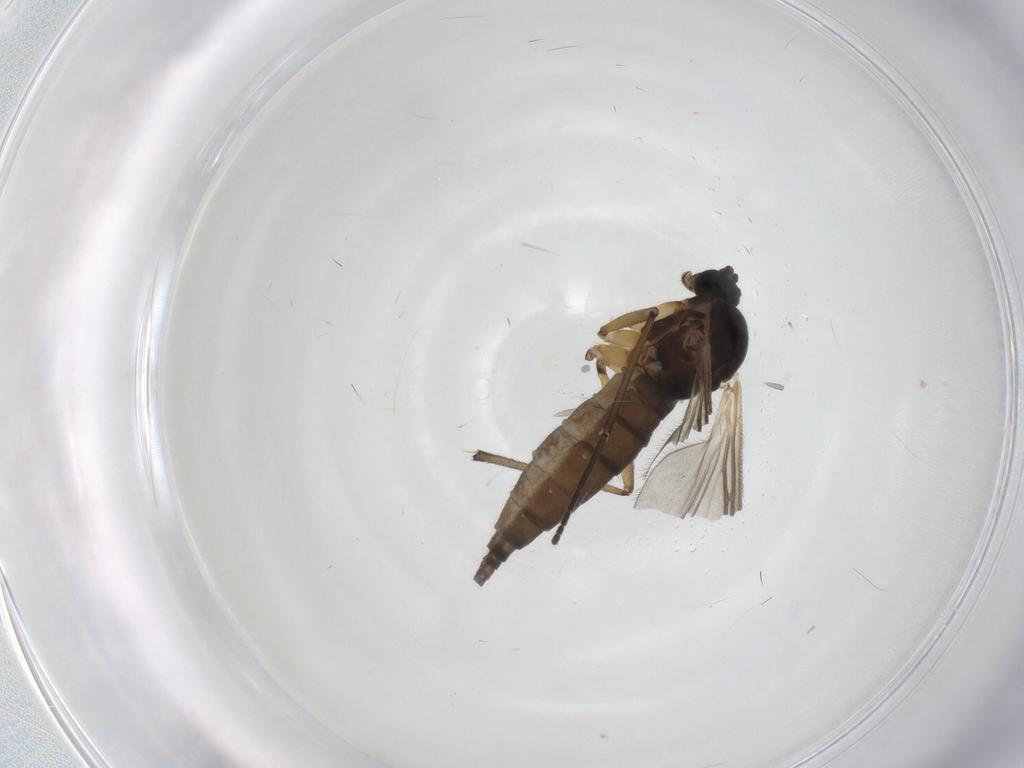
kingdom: Animalia
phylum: Arthropoda
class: Insecta
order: Diptera
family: Sciaridae
